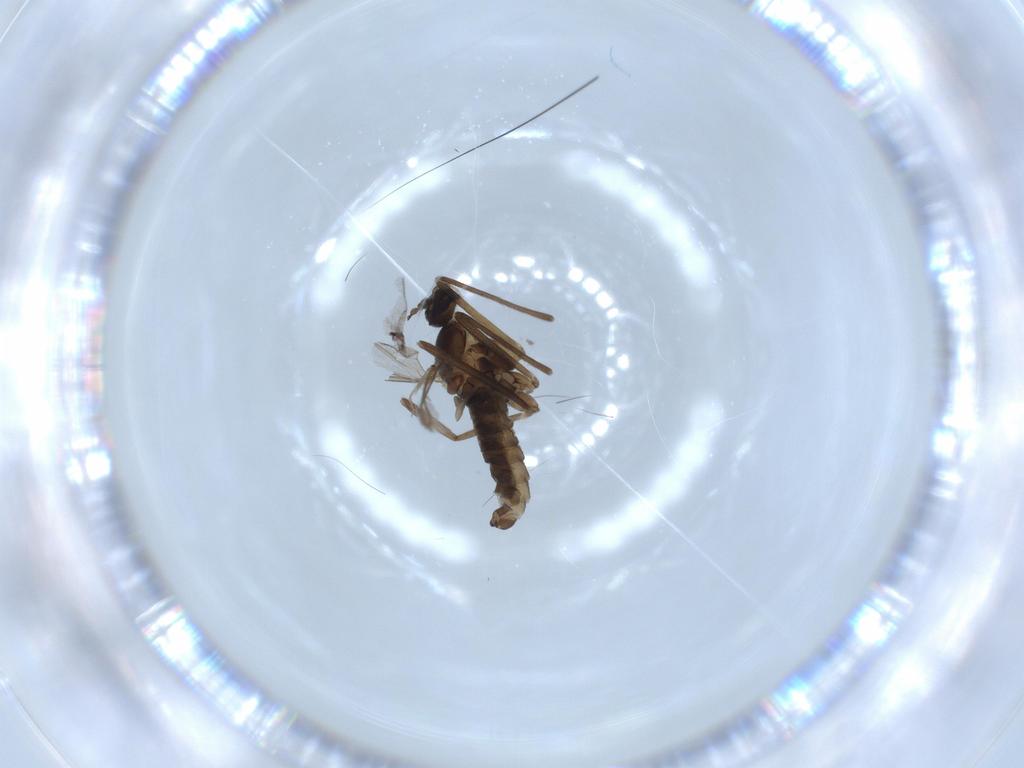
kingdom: Animalia
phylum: Arthropoda
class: Insecta
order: Diptera
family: Cecidomyiidae
